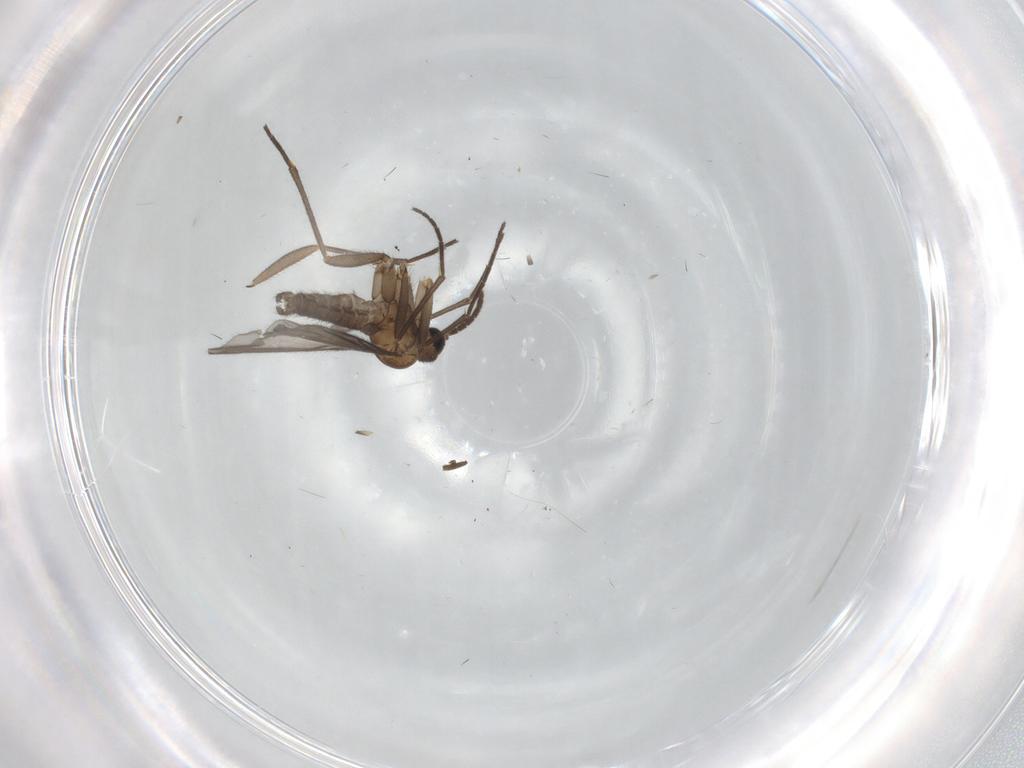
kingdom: Animalia
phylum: Arthropoda
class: Insecta
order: Diptera
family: Sciaridae
